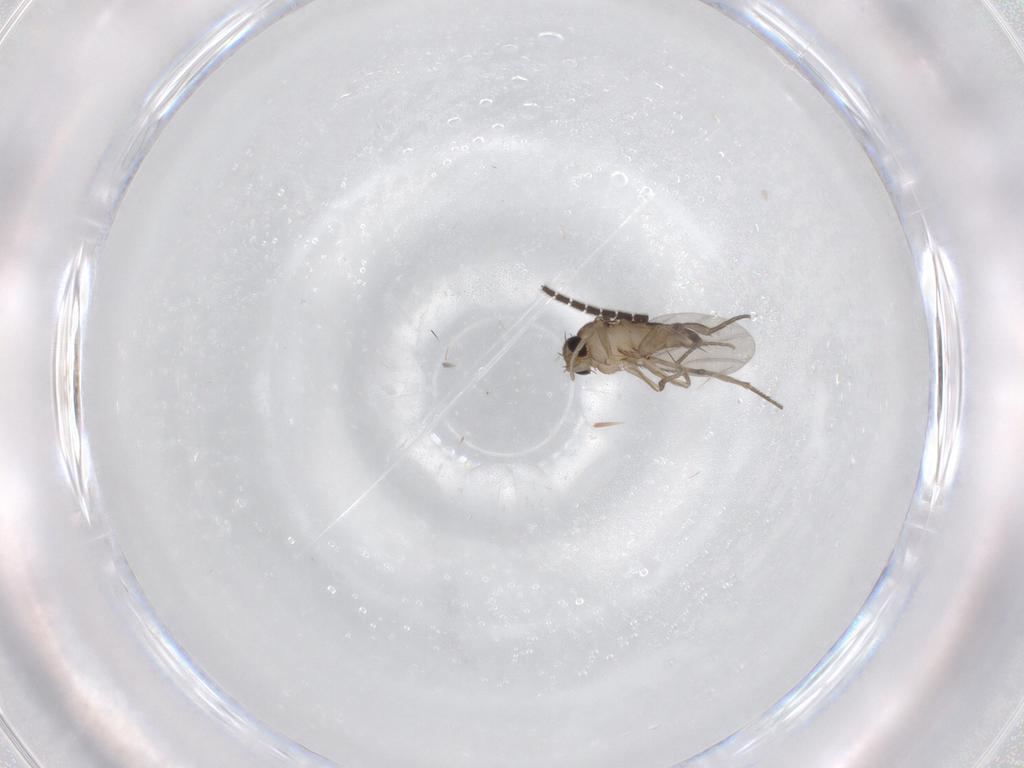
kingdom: Animalia
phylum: Arthropoda
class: Insecta
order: Diptera
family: Phoridae
